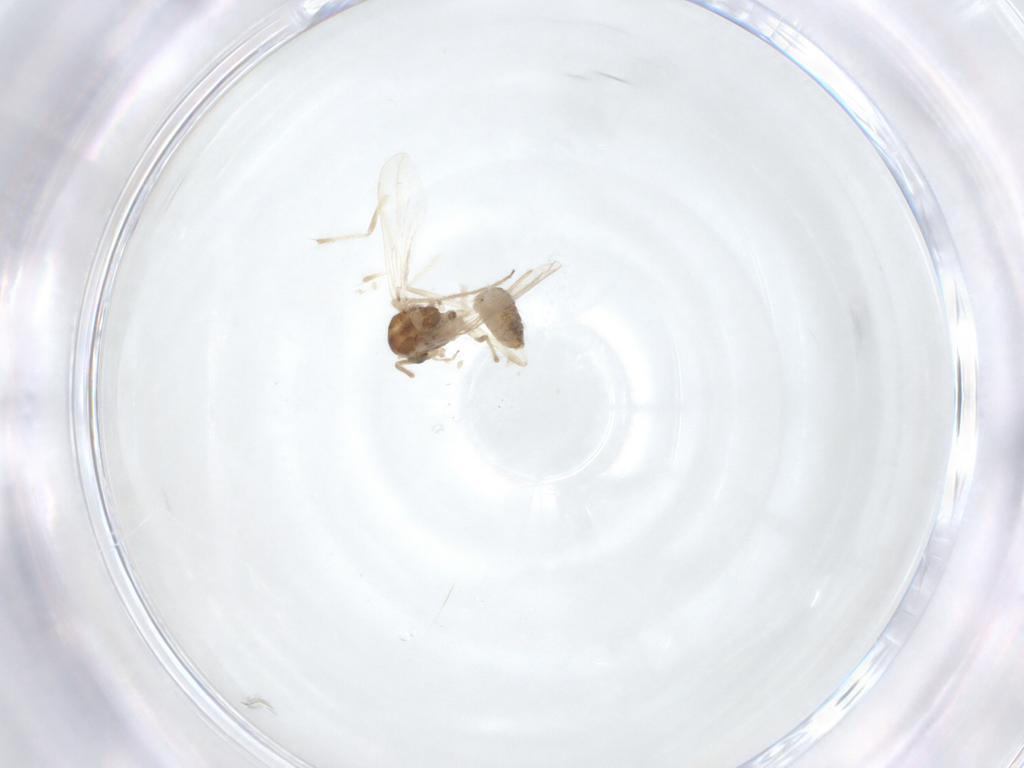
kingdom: Animalia
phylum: Arthropoda
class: Insecta
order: Diptera
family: Chironomidae
